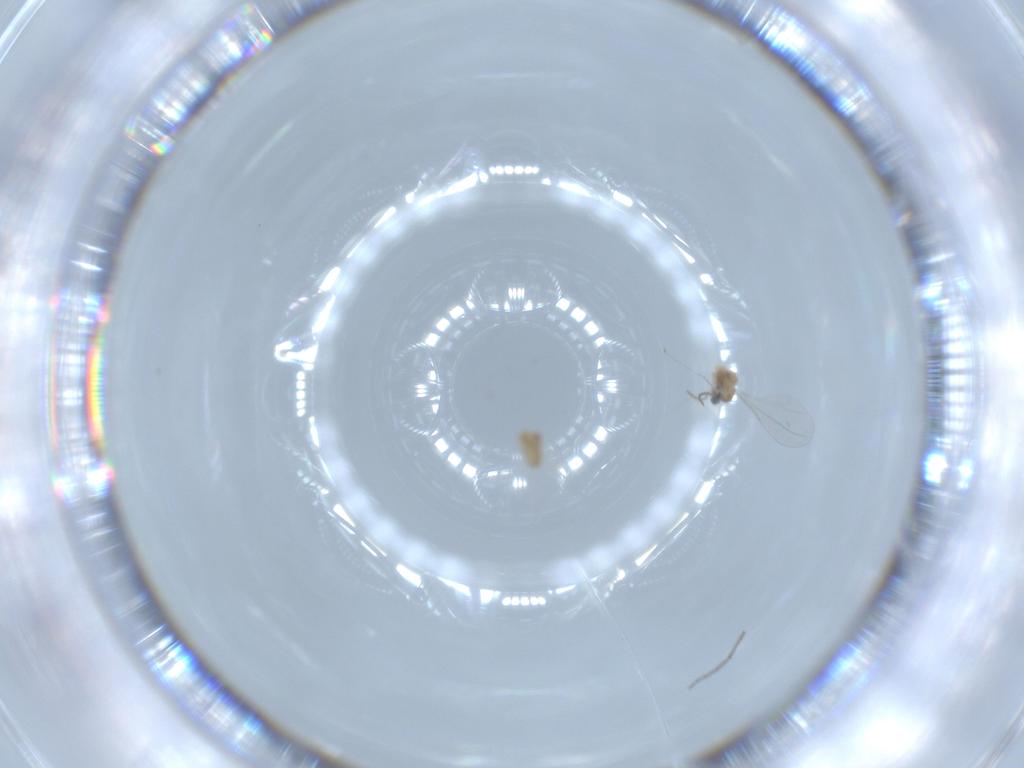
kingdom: Animalia
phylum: Arthropoda
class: Insecta
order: Diptera
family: Cecidomyiidae
